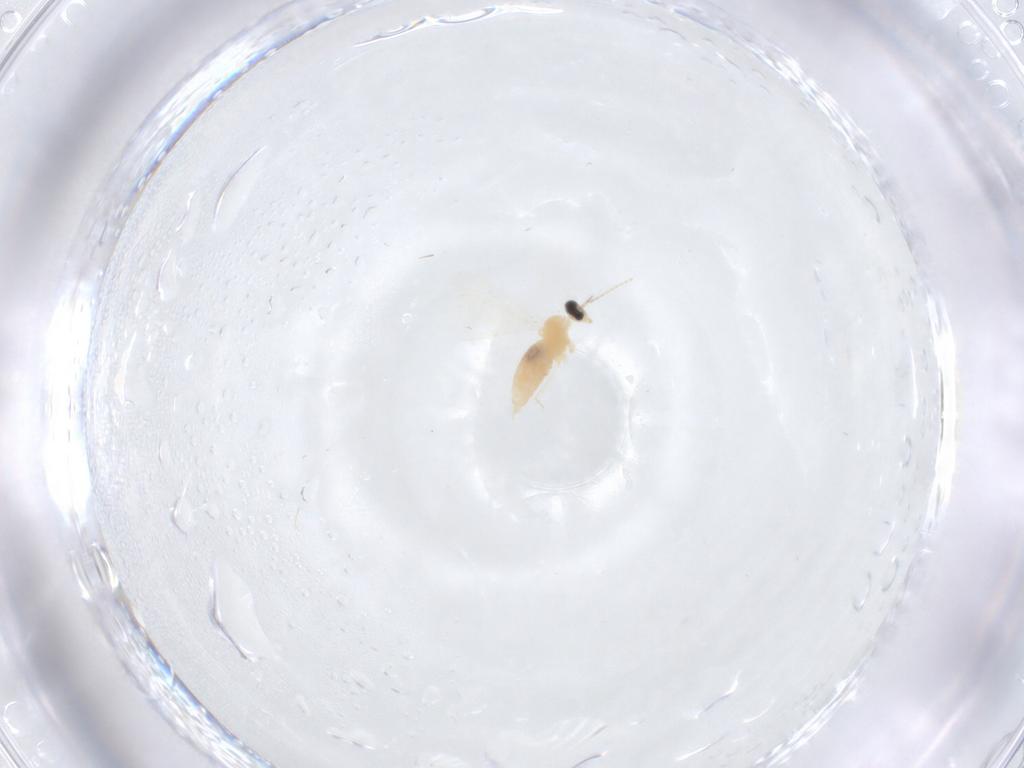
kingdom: Animalia
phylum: Arthropoda
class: Insecta
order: Diptera
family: Cecidomyiidae
